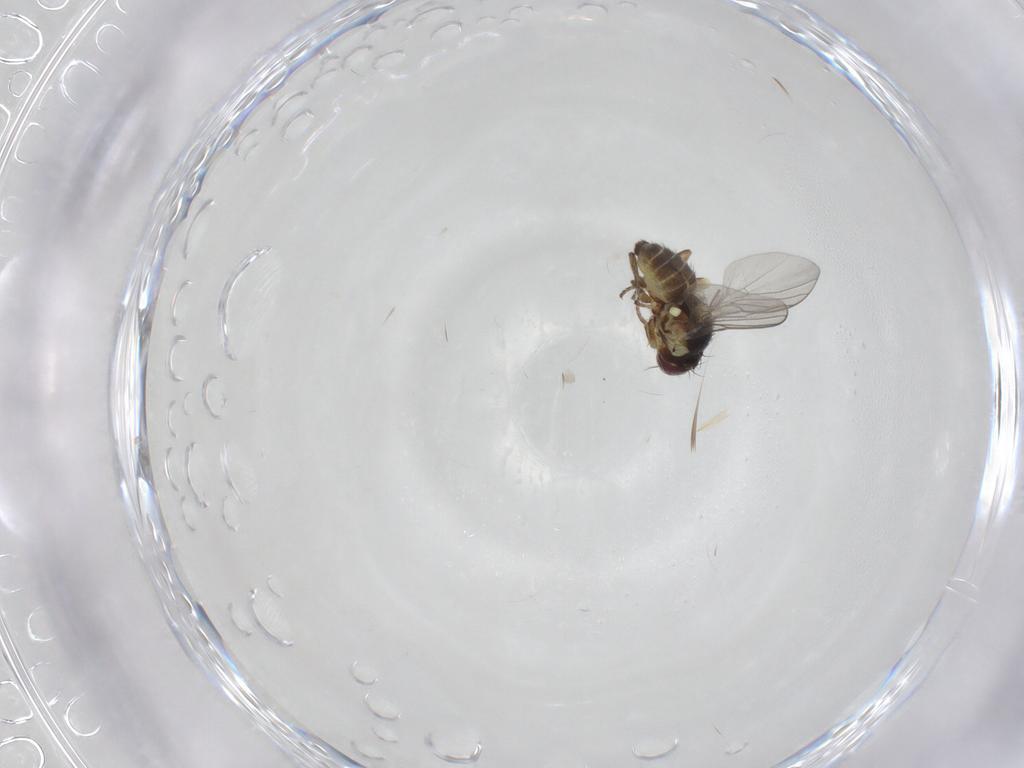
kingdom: Animalia
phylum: Arthropoda
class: Insecta
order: Diptera
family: Agromyzidae
